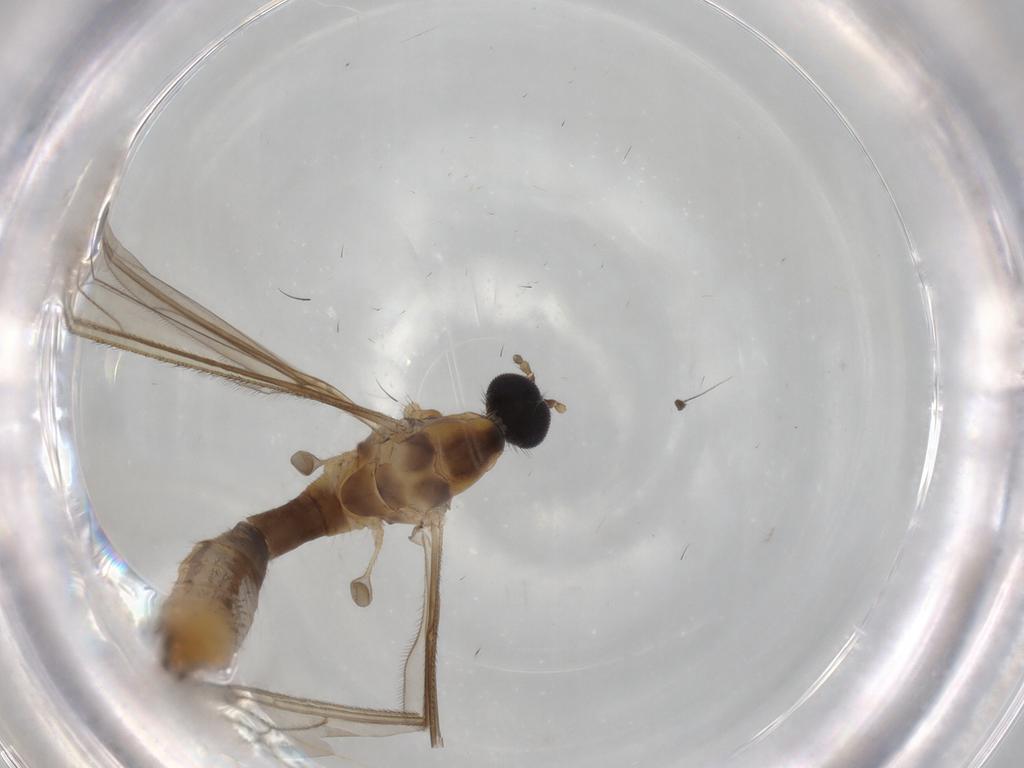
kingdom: Animalia
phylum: Arthropoda
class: Insecta
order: Diptera
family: Limoniidae
